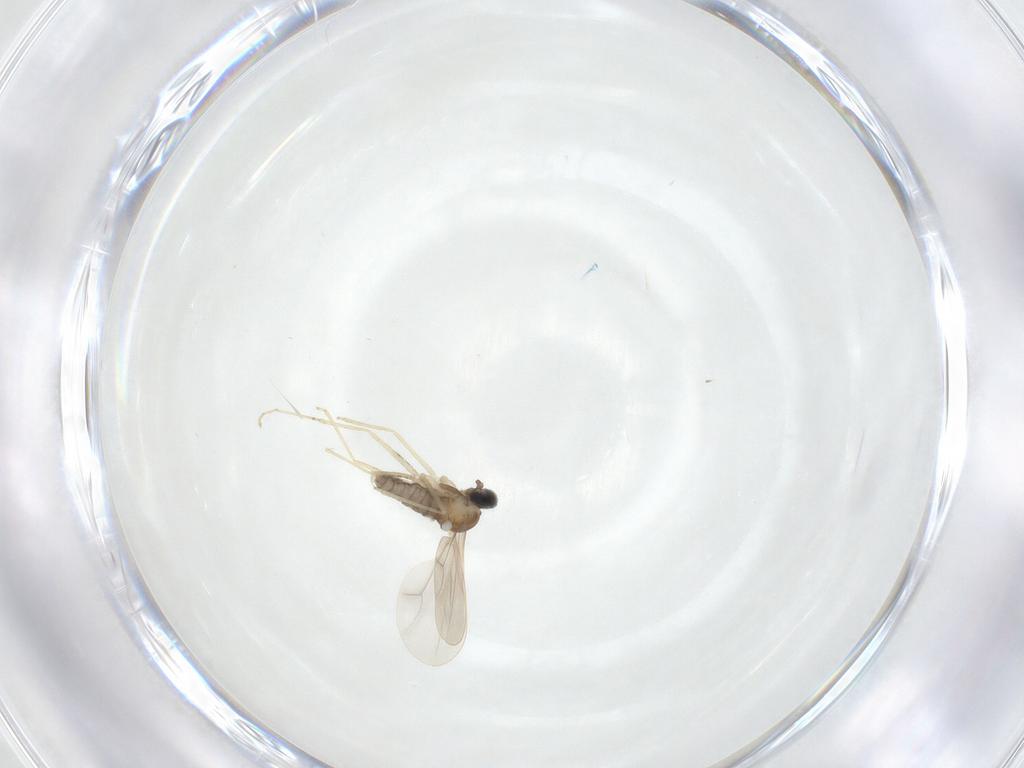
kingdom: Animalia
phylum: Arthropoda
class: Insecta
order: Diptera
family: Cecidomyiidae
